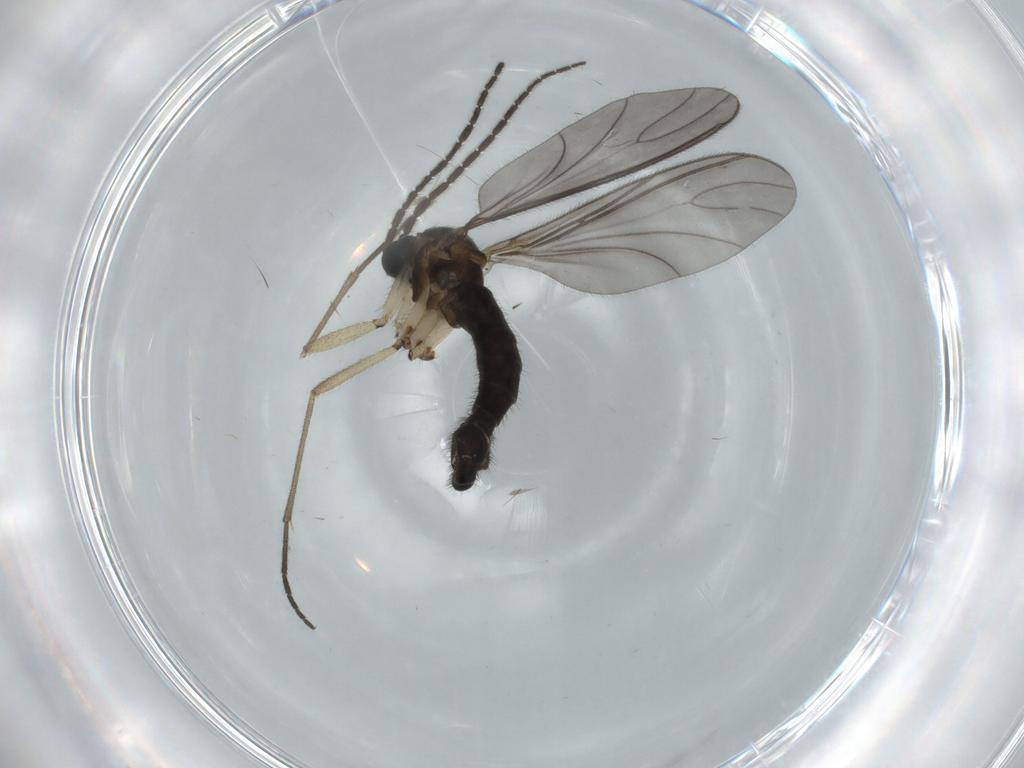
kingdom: Animalia
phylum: Arthropoda
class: Insecta
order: Diptera
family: Sciaridae
